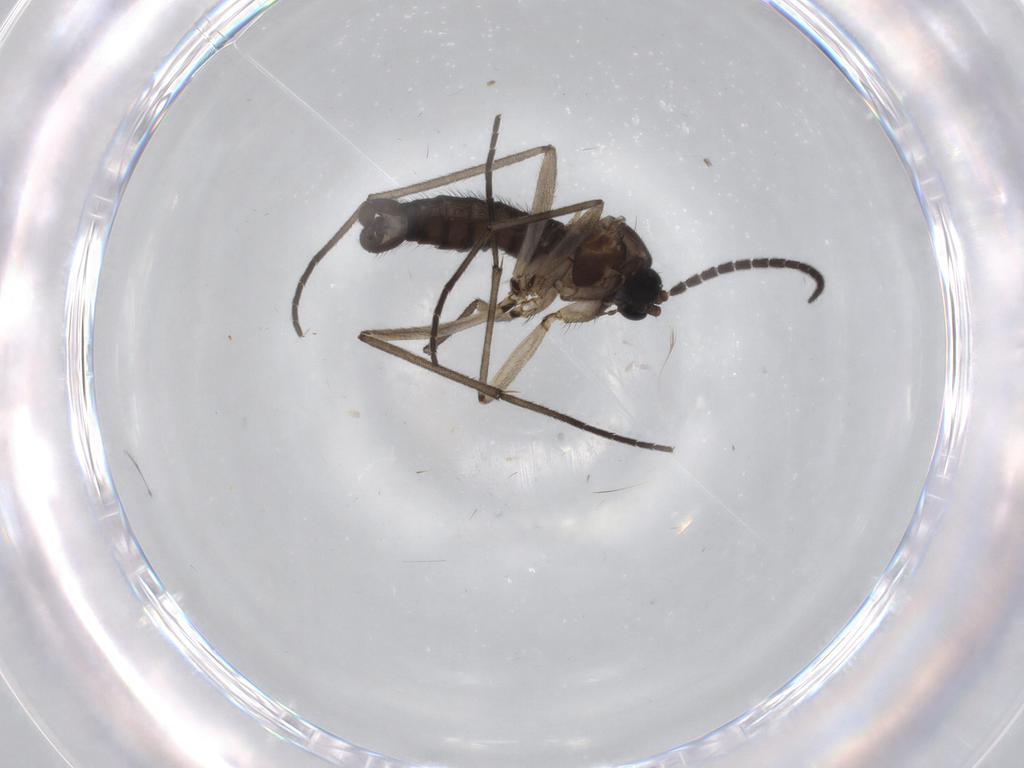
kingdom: Animalia
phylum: Arthropoda
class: Insecta
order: Diptera
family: Sciaridae
